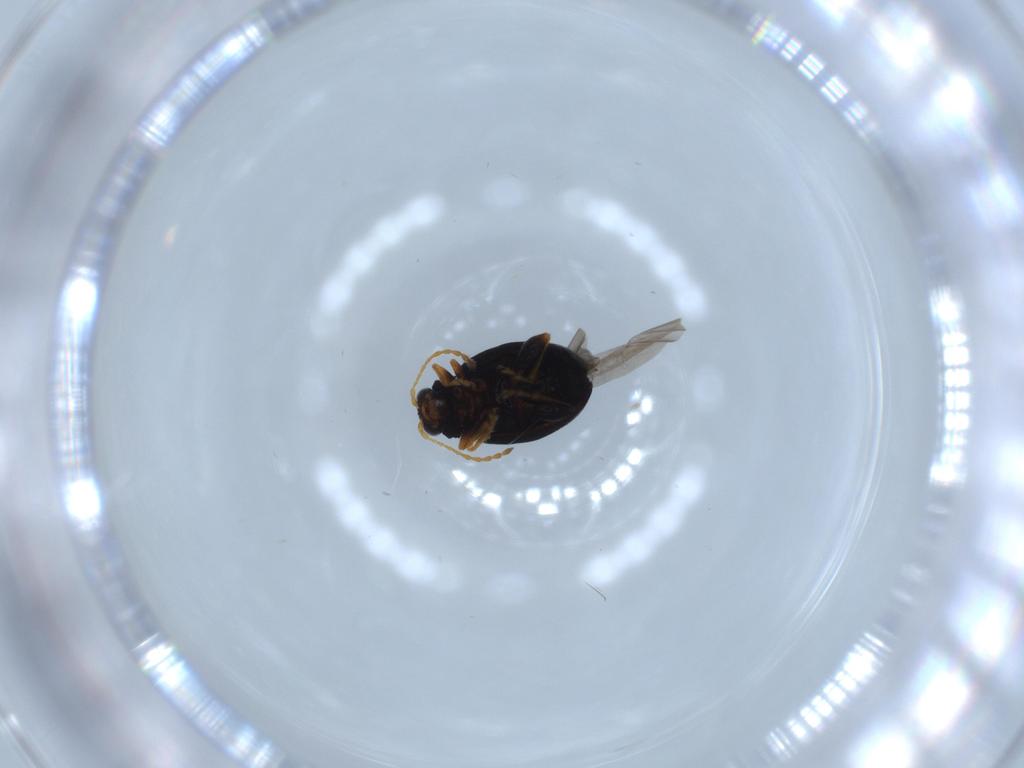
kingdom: Animalia
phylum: Arthropoda
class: Insecta
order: Coleoptera
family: Chrysomelidae
